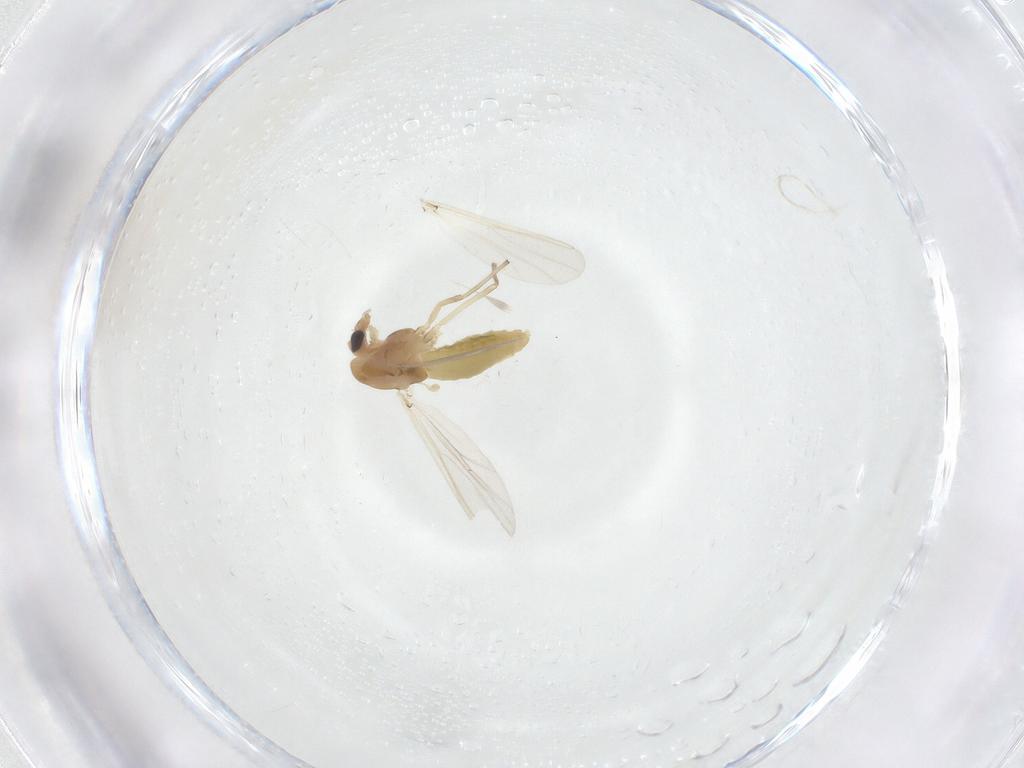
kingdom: Animalia
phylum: Arthropoda
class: Insecta
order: Diptera
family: Chironomidae
